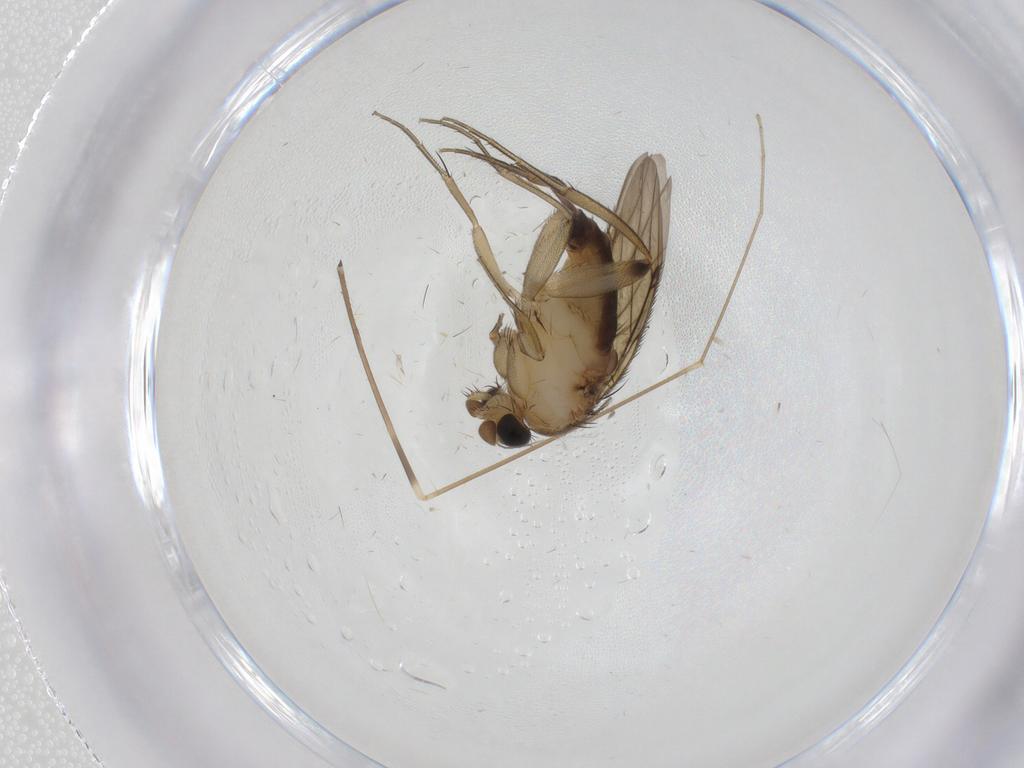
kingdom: Animalia
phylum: Arthropoda
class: Insecta
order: Diptera
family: Phoridae
